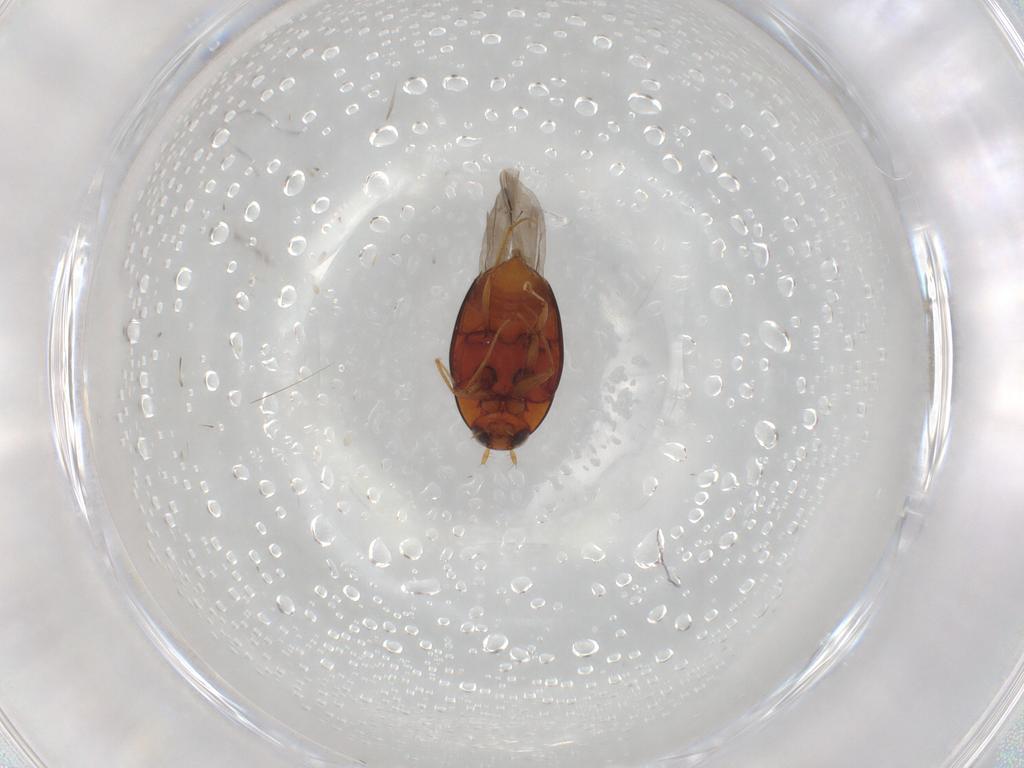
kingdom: Animalia
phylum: Arthropoda
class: Insecta
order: Coleoptera
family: Staphylinidae
